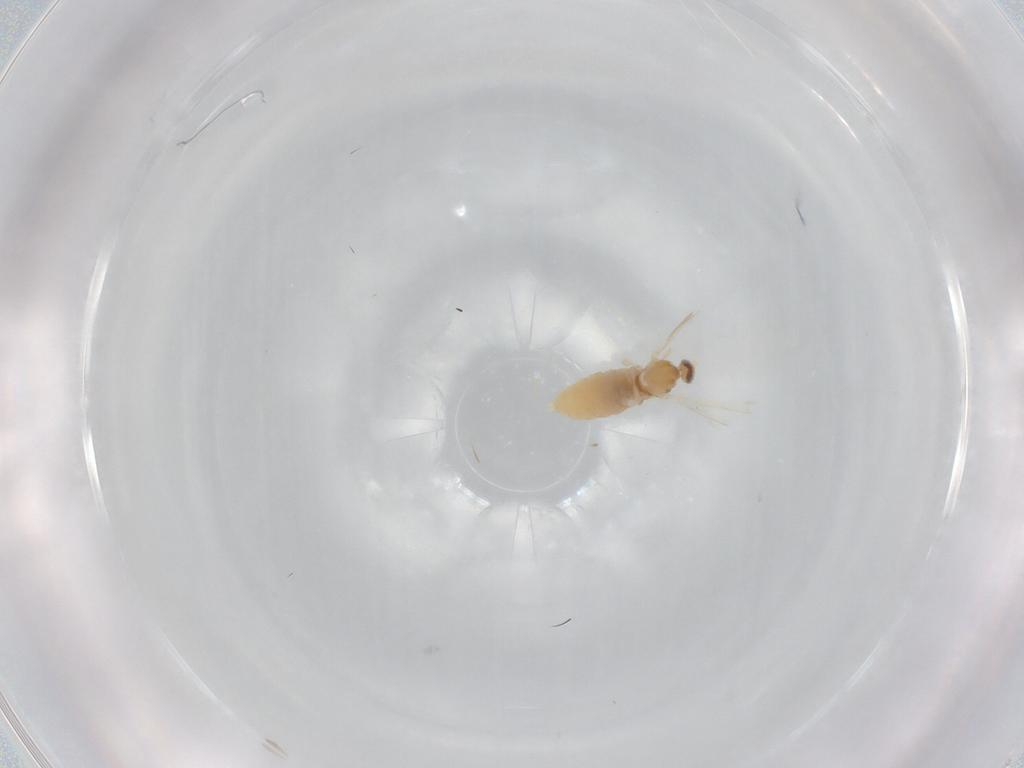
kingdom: Animalia
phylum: Arthropoda
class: Insecta
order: Diptera
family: Cecidomyiidae
